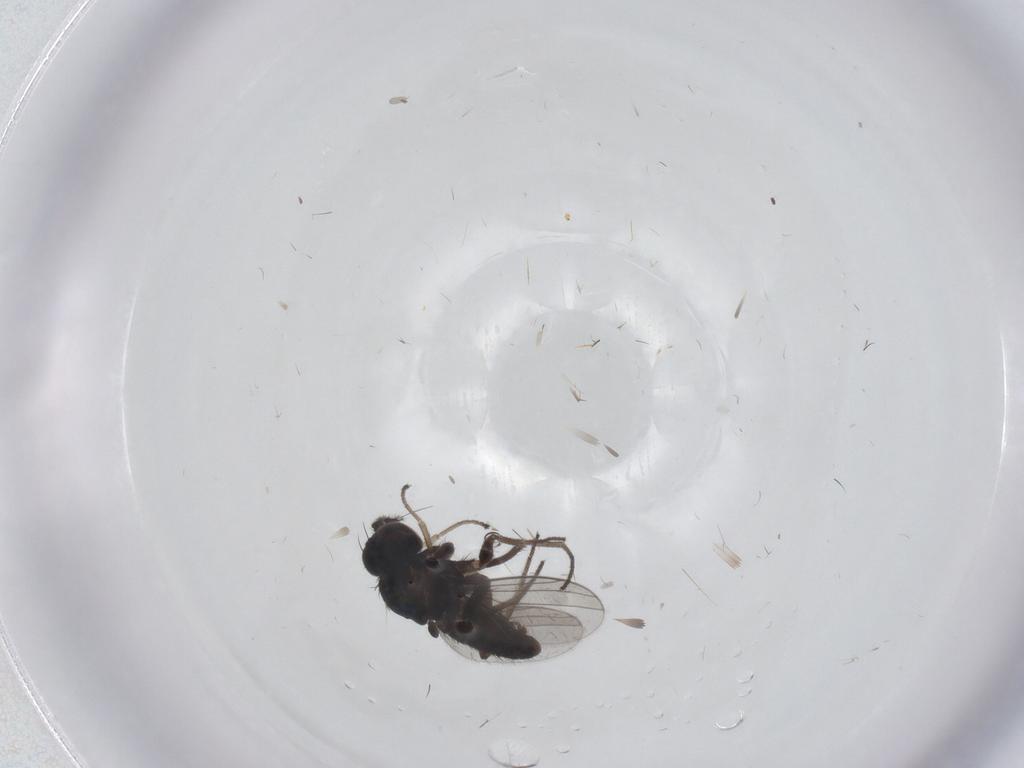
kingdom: Animalia
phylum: Arthropoda
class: Insecta
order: Diptera
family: Dolichopodidae
